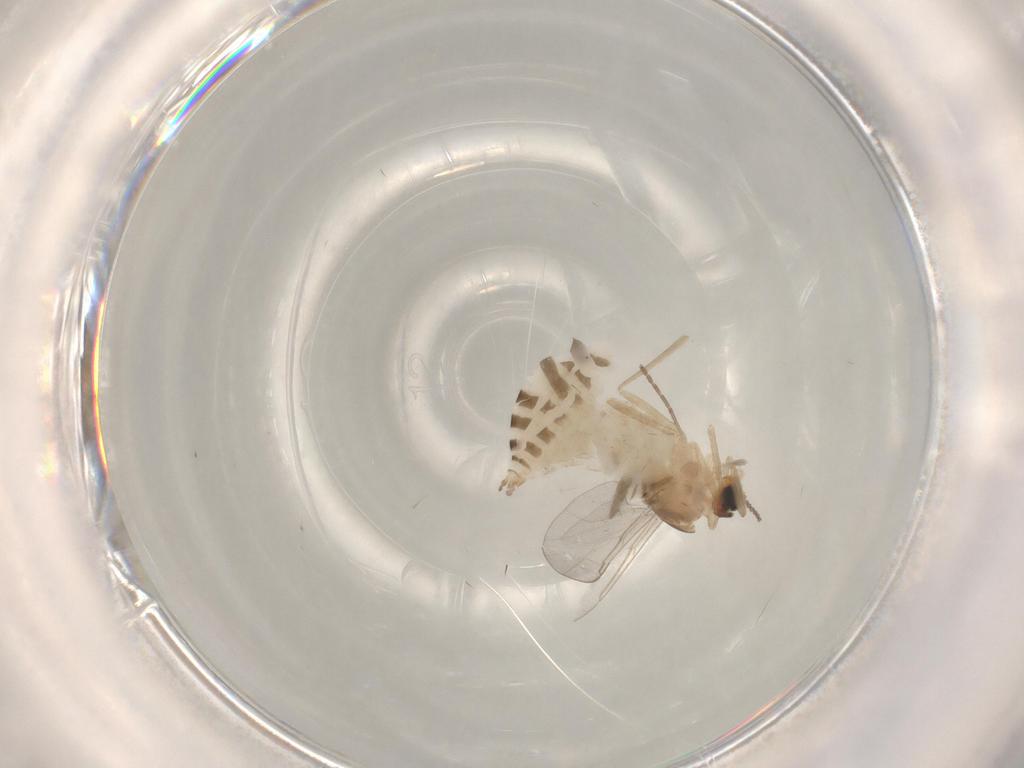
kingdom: Animalia
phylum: Arthropoda
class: Insecta
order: Diptera
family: Cecidomyiidae
